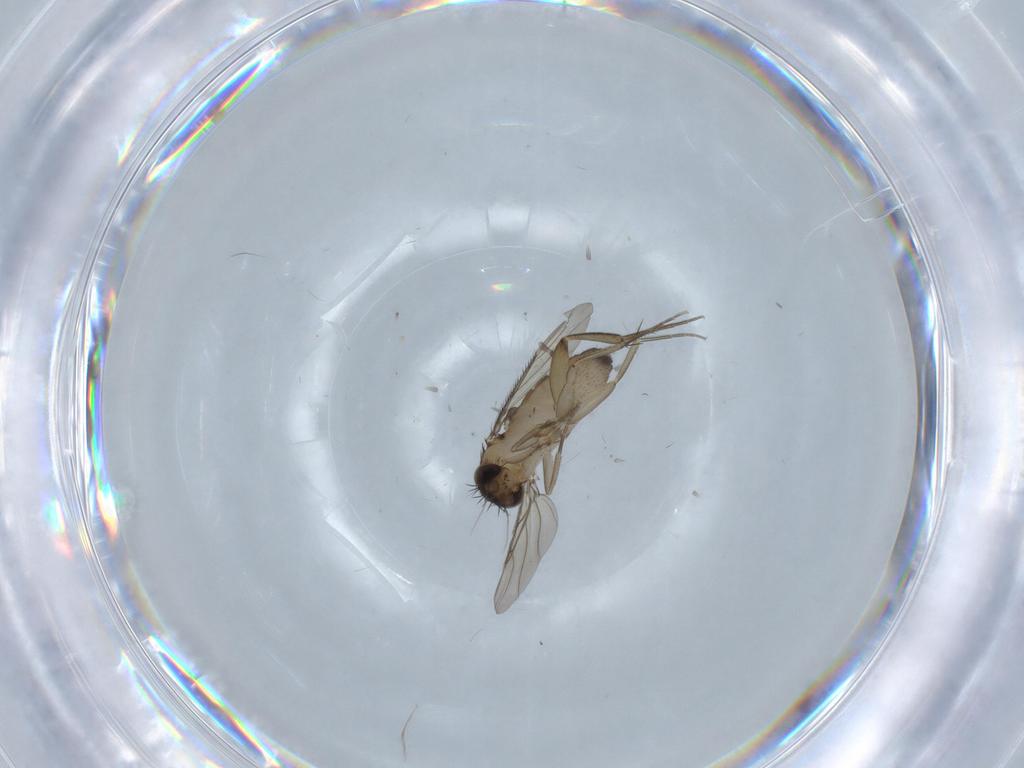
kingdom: Animalia
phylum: Arthropoda
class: Insecta
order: Diptera
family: Phoridae
